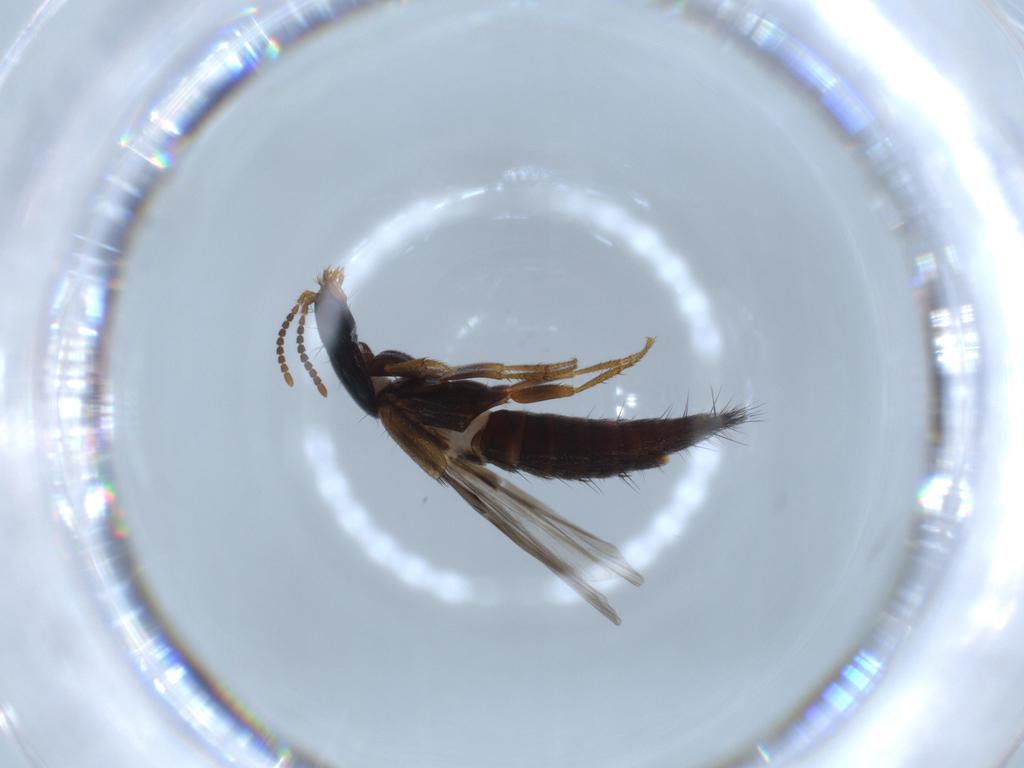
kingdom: Animalia
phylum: Arthropoda
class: Insecta
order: Coleoptera
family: Staphylinidae
